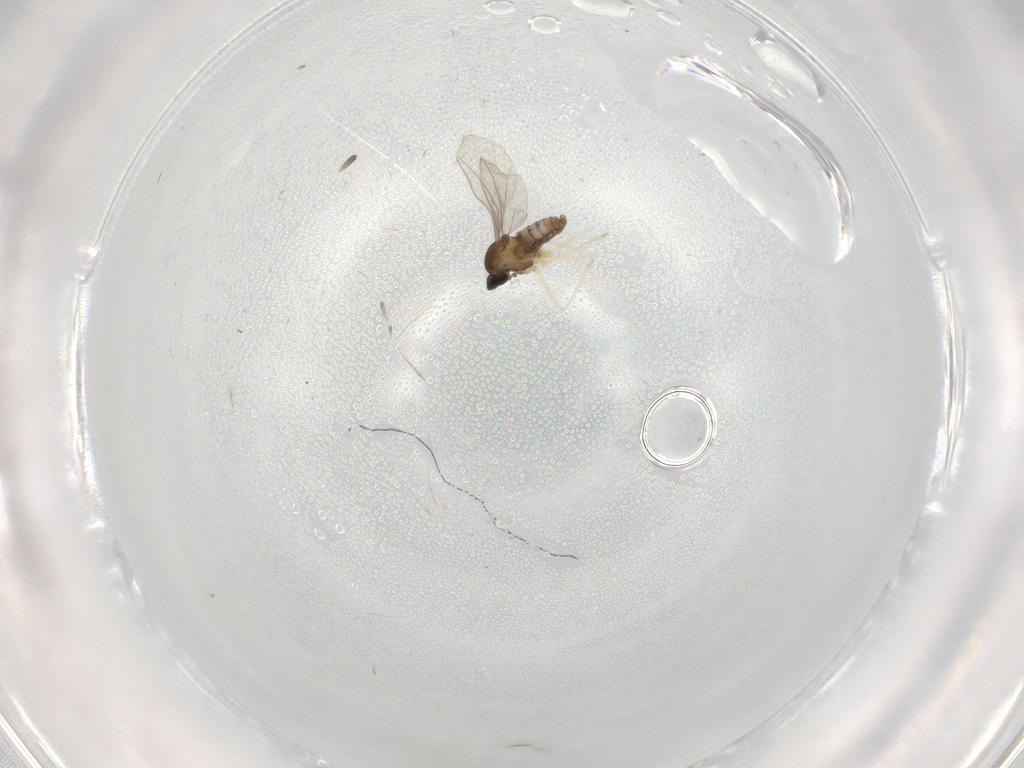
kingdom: Animalia
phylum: Arthropoda
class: Insecta
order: Diptera
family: Cecidomyiidae
